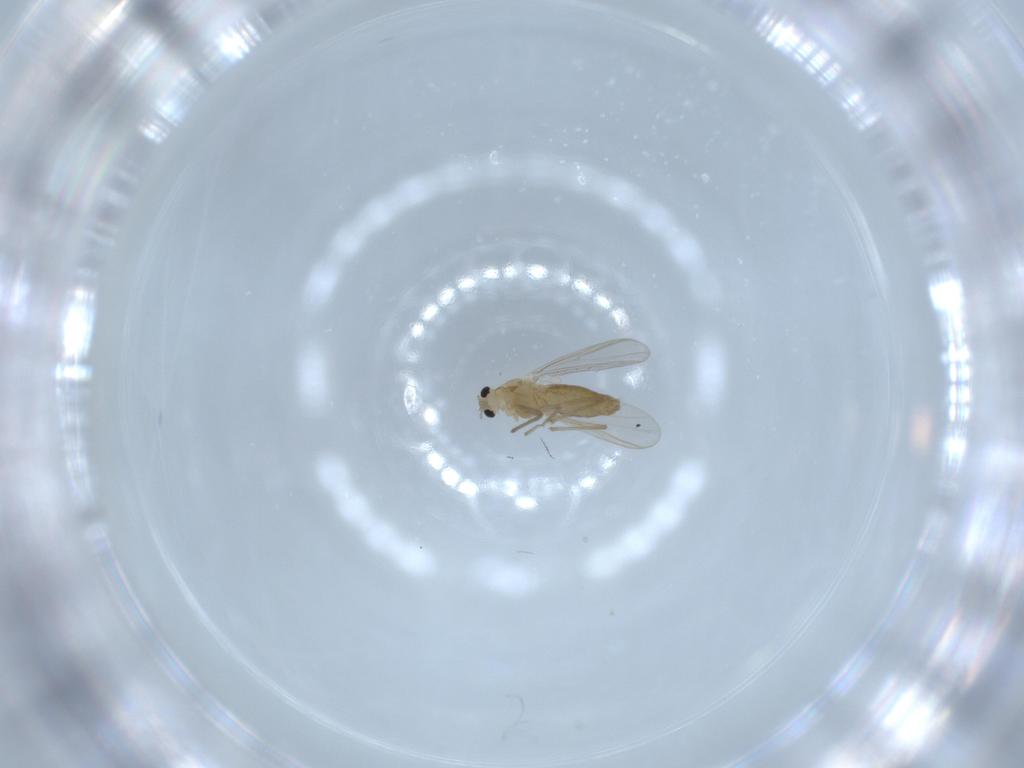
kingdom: Animalia
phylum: Arthropoda
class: Insecta
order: Diptera
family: Chironomidae
